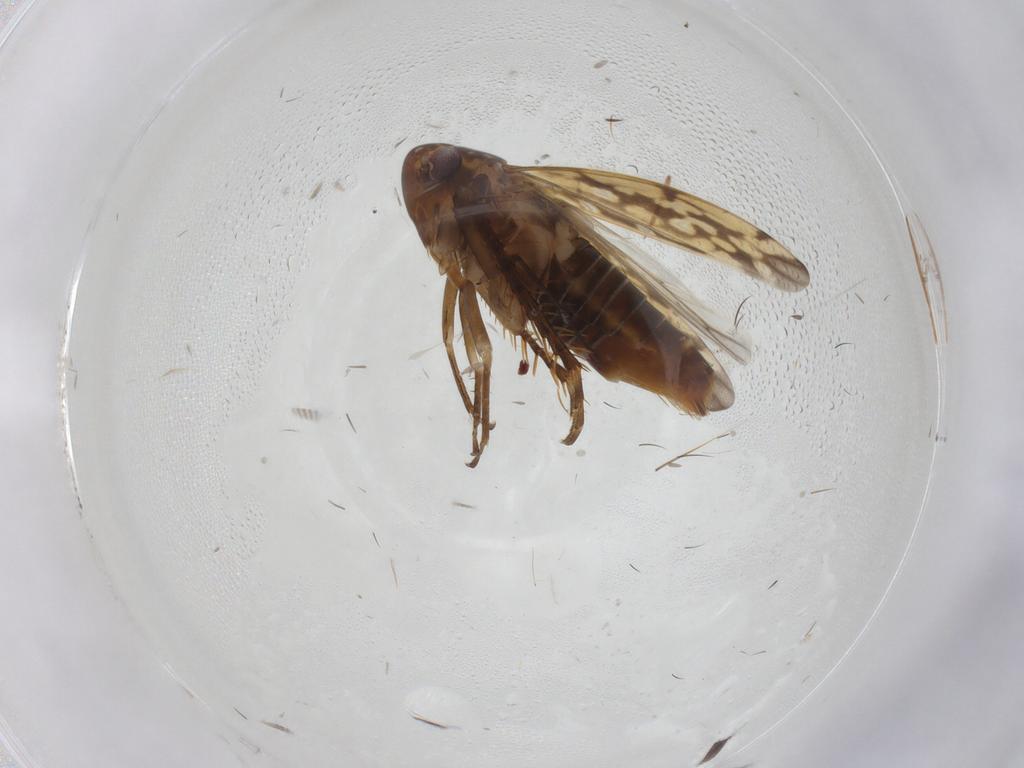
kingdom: Animalia
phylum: Arthropoda
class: Insecta
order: Hemiptera
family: Cicadellidae
